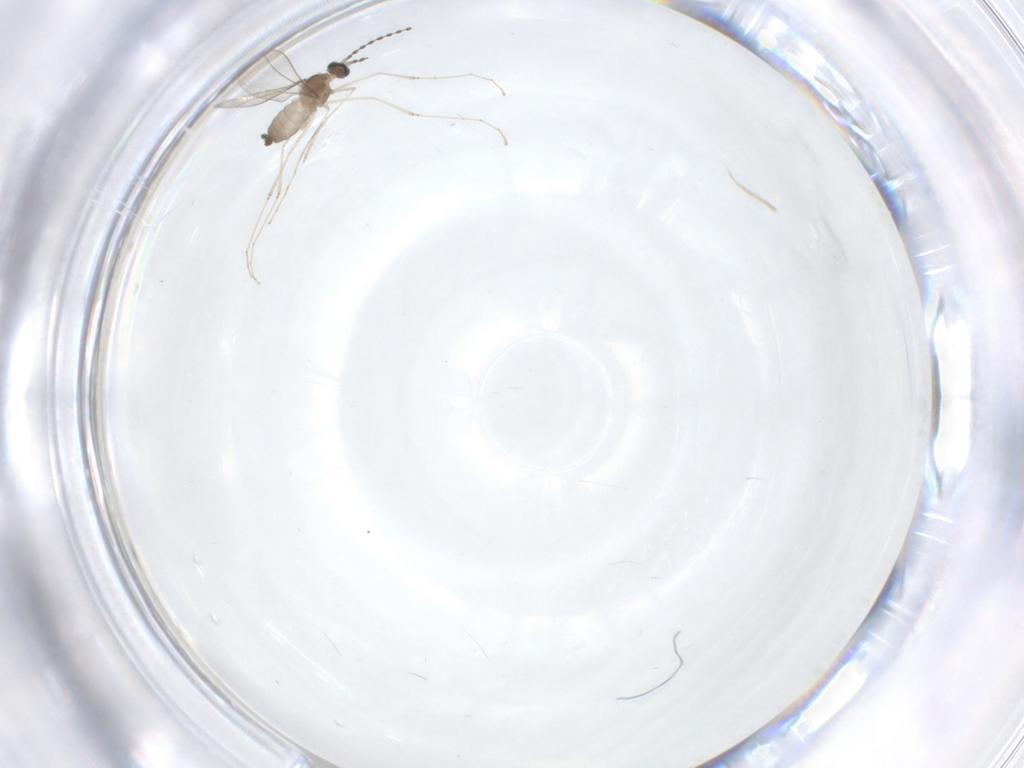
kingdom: Animalia
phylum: Arthropoda
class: Insecta
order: Diptera
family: Cecidomyiidae
